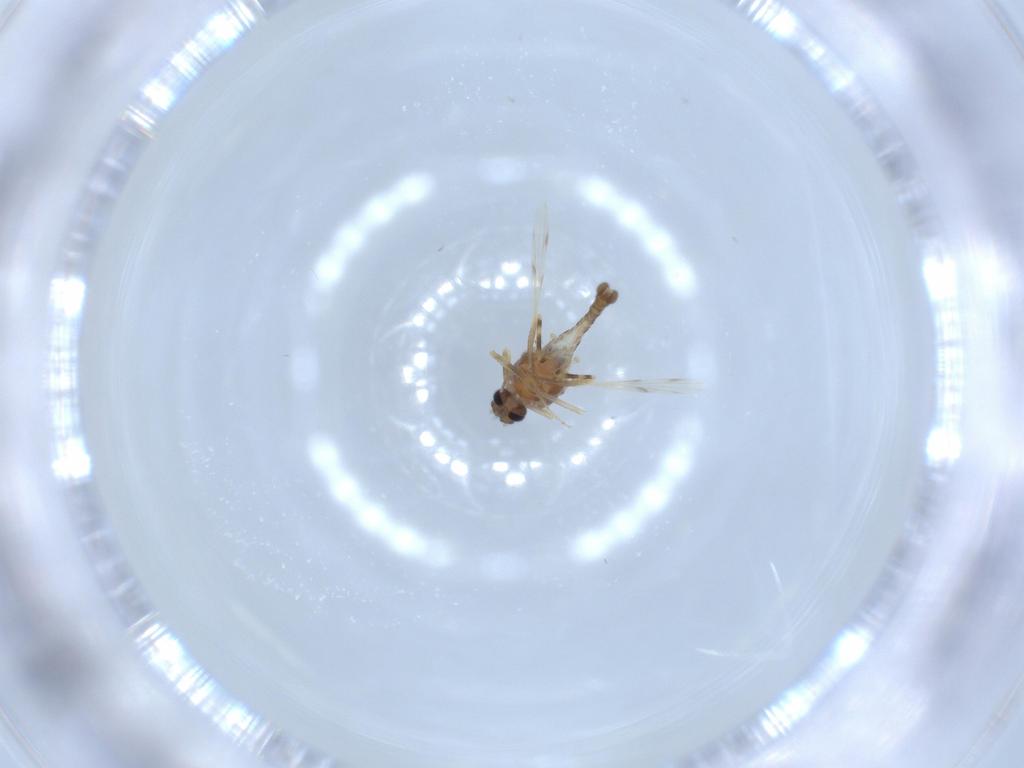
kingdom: Animalia
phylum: Arthropoda
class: Insecta
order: Diptera
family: Ceratopogonidae
